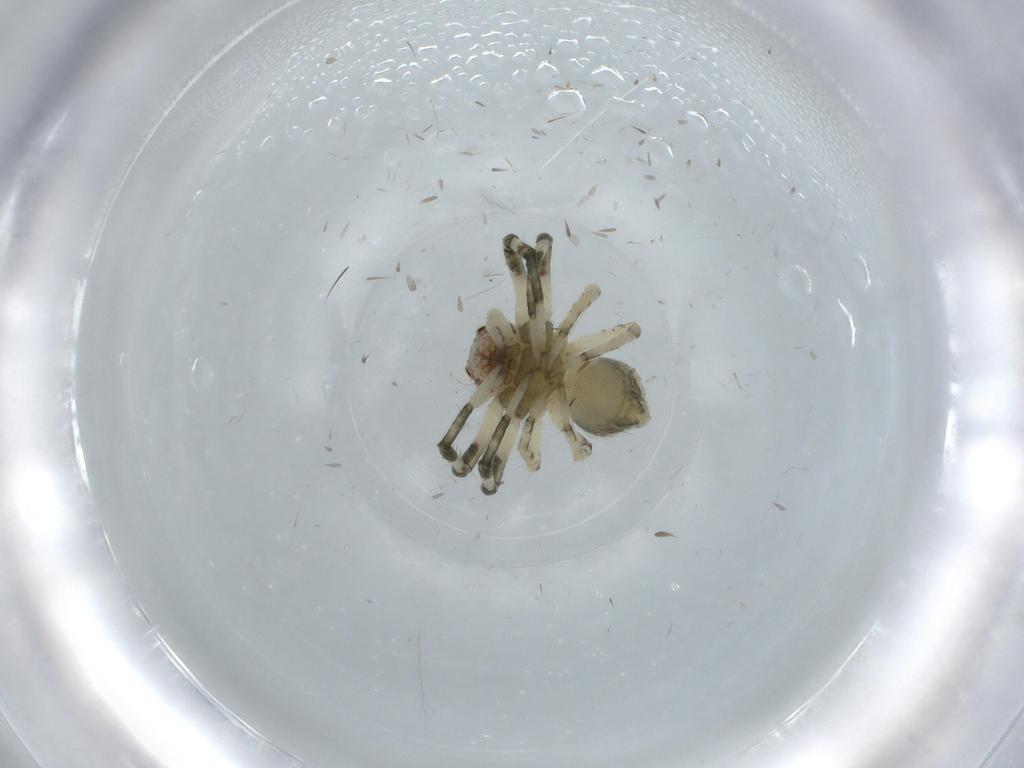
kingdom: Animalia
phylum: Arthropoda
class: Arachnida
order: Araneae
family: Thomisidae
